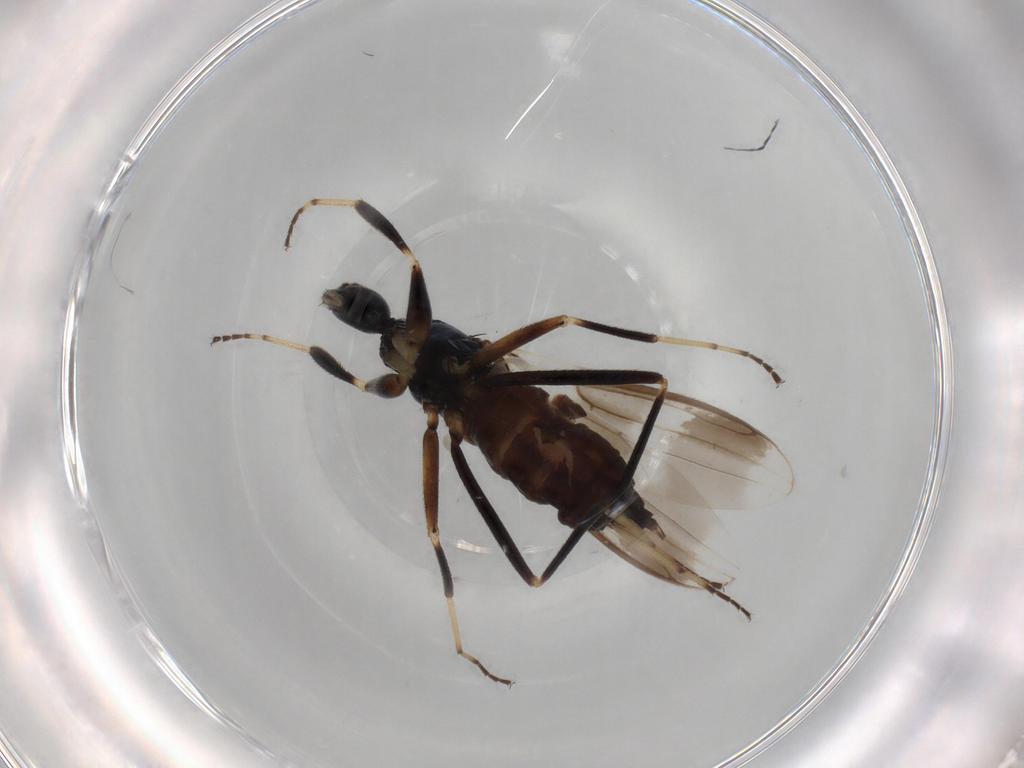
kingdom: Animalia
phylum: Arthropoda
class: Insecta
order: Diptera
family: Hybotidae
